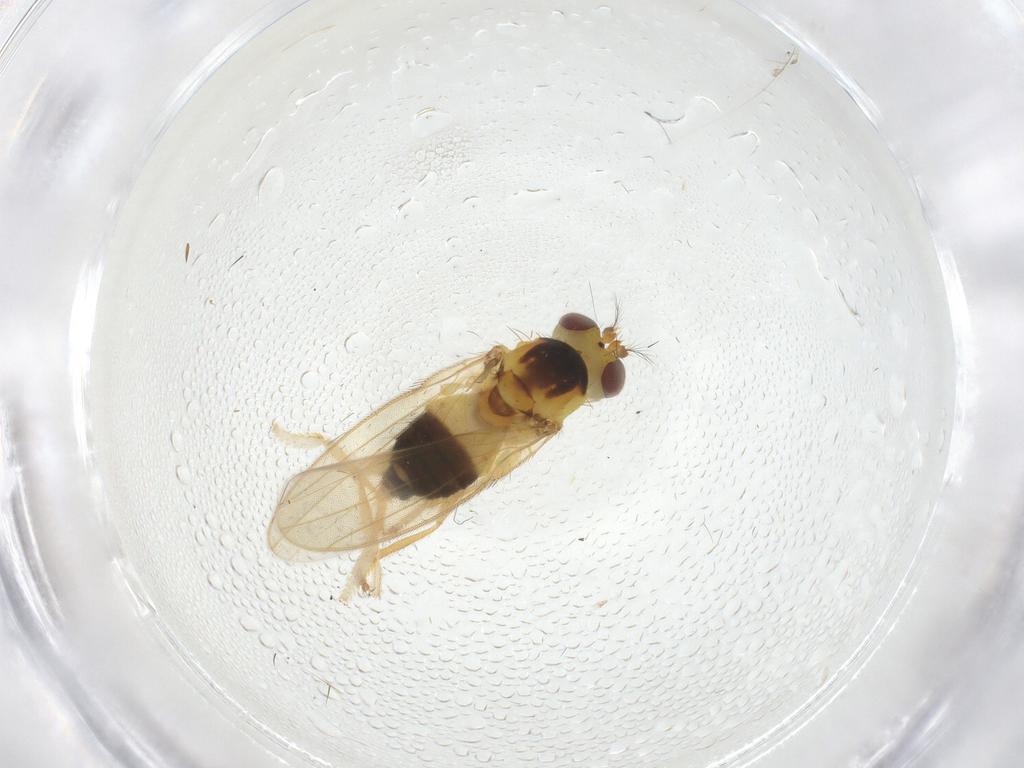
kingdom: Animalia
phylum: Arthropoda
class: Insecta
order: Diptera
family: Periscelididae
